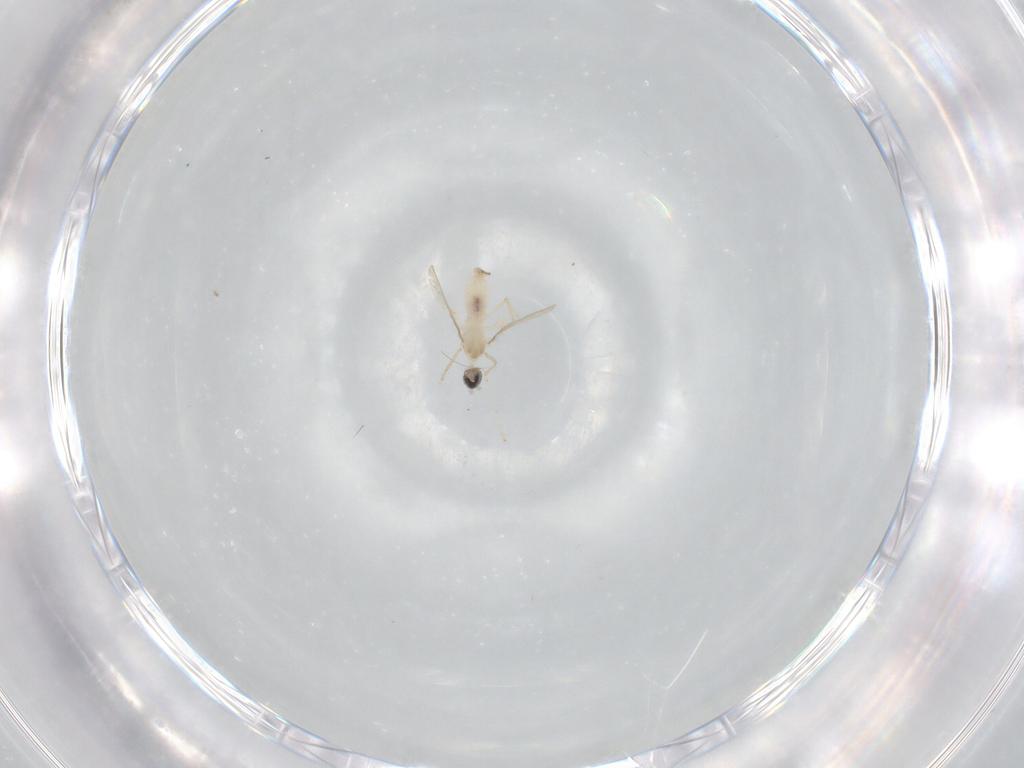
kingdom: Animalia
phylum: Arthropoda
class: Insecta
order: Diptera
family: Cecidomyiidae
